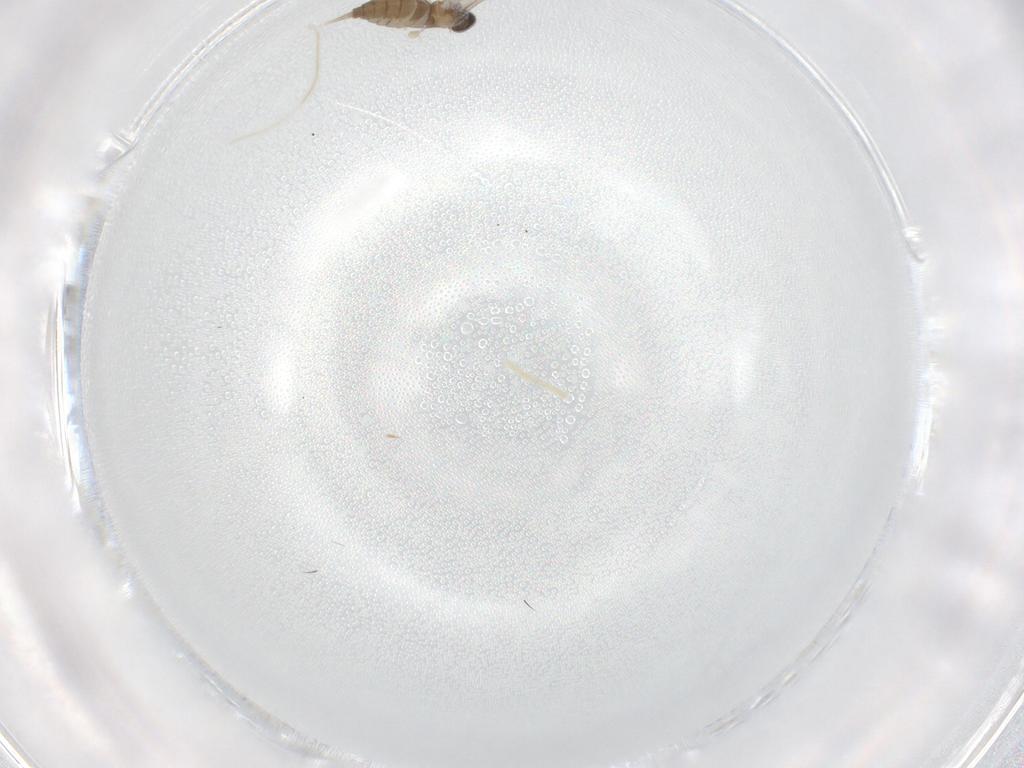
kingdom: Animalia
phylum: Arthropoda
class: Insecta
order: Diptera
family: Cecidomyiidae
